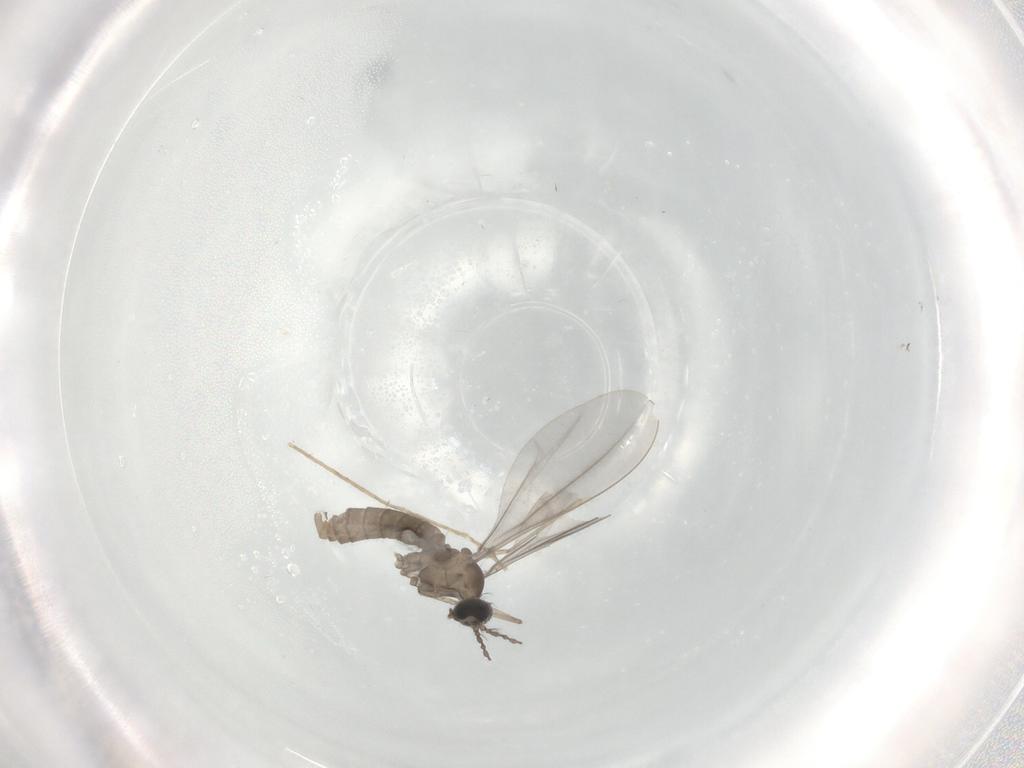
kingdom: Animalia
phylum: Arthropoda
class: Insecta
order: Diptera
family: Cecidomyiidae
